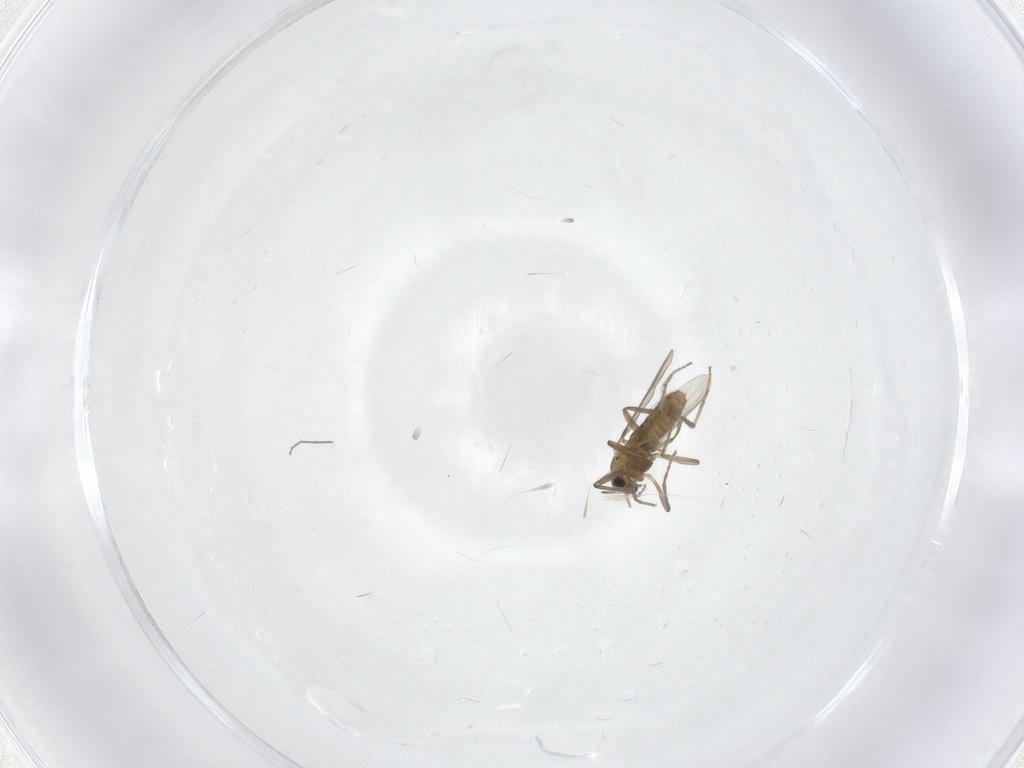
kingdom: Animalia
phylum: Arthropoda
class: Insecta
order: Diptera
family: Chironomidae
